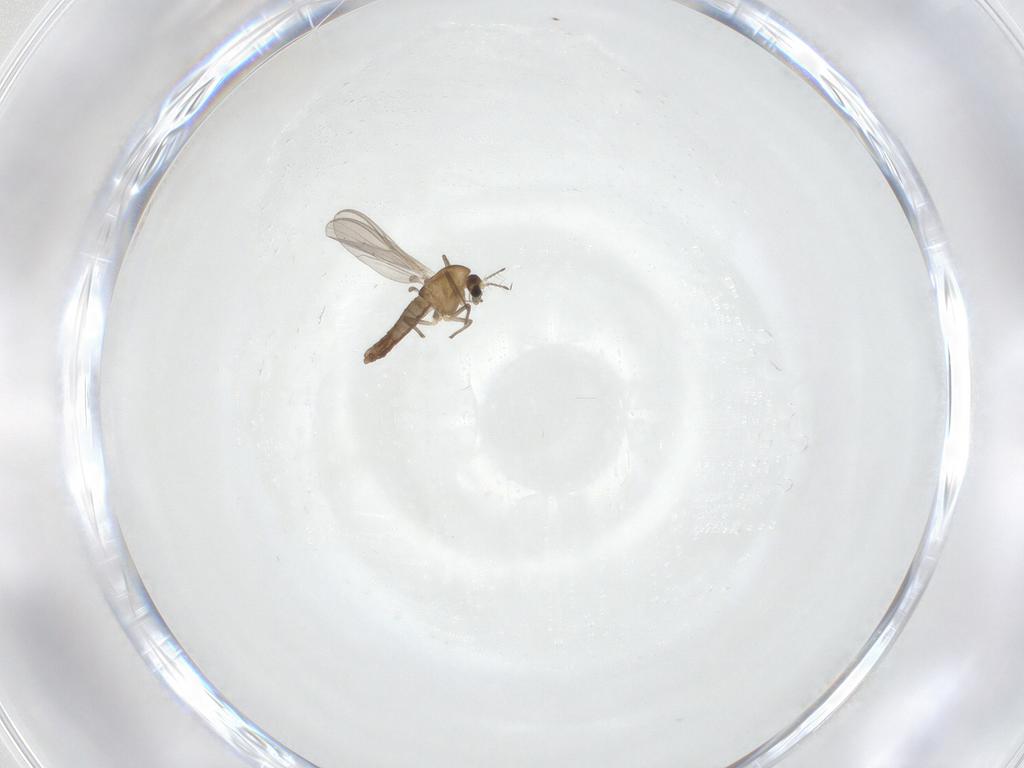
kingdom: Animalia
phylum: Arthropoda
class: Insecta
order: Diptera
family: Chironomidae
